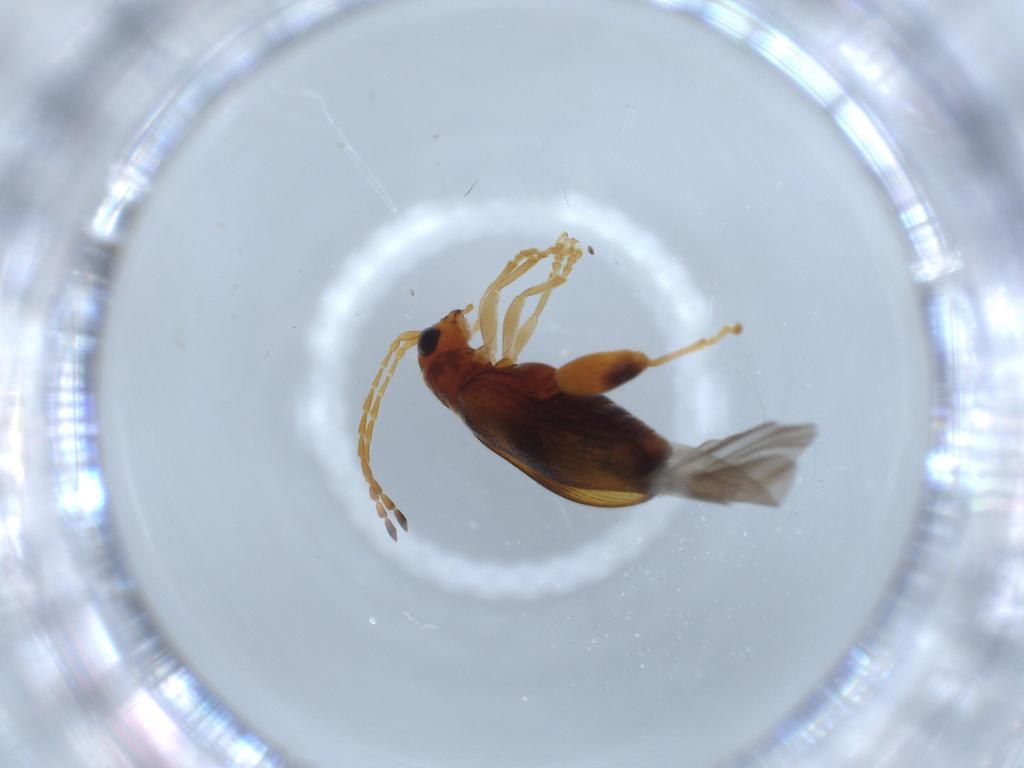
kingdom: Animalia
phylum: Arthropoda
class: Insecta
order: Coleoptera
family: Chrysomelidae
